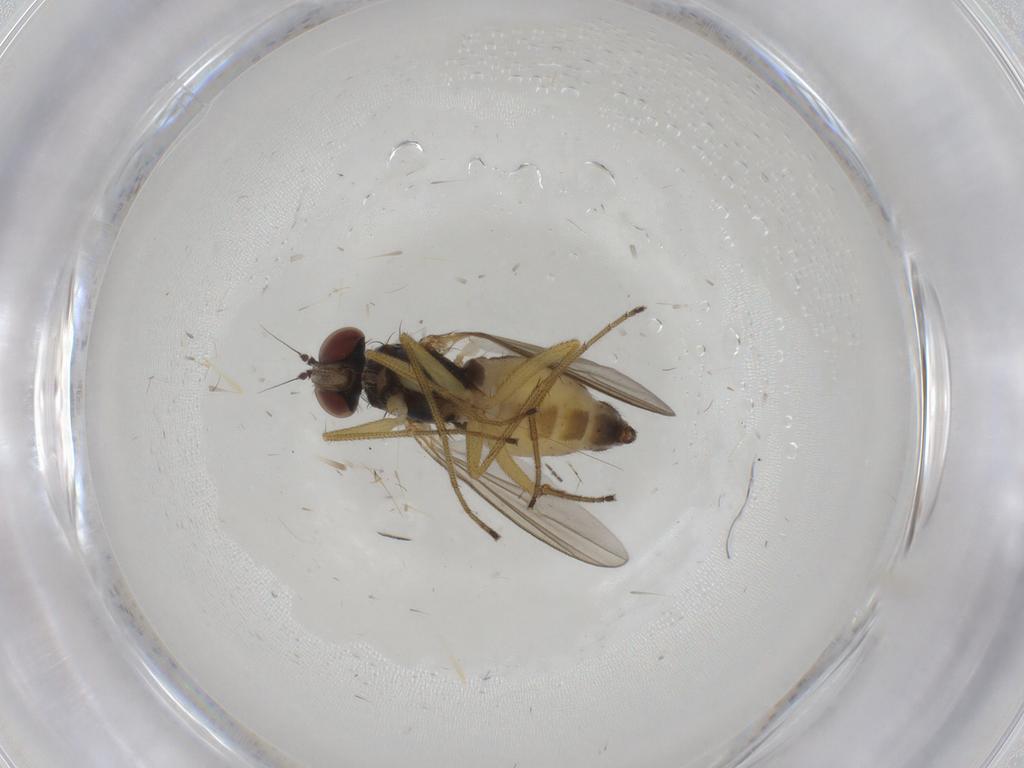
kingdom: Animalia
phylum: Arthropoda
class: Insecta
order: Diptera
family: Dolichopodidae
